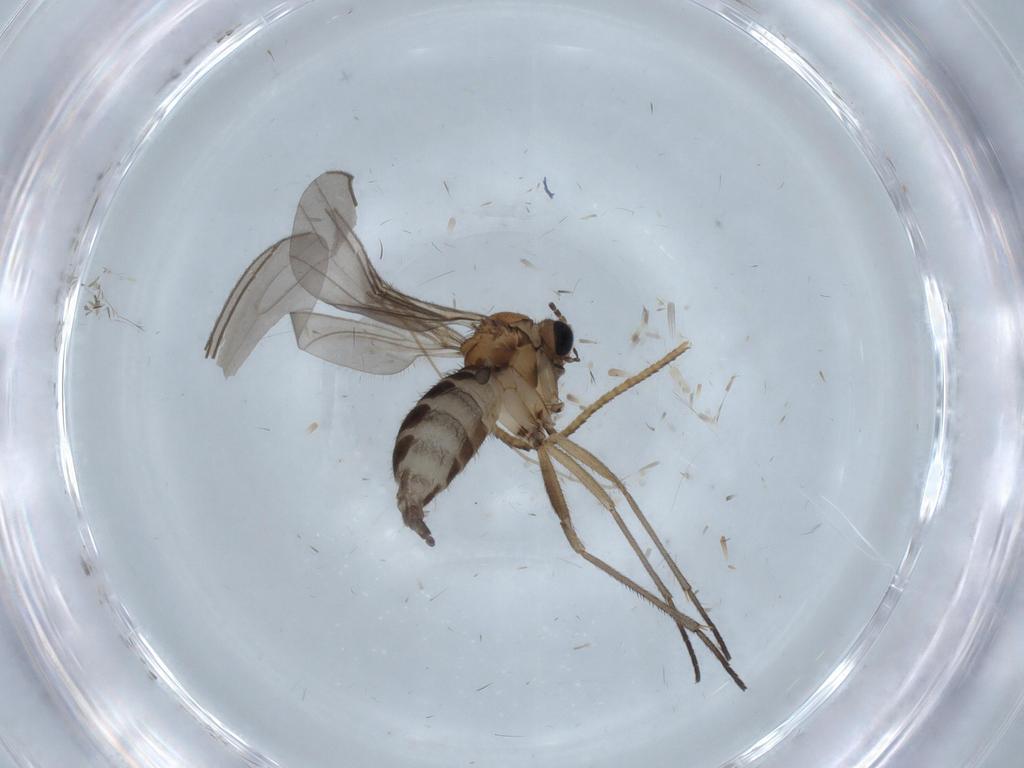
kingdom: Animalia
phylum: Arthropoda
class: Insecta
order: Diptera
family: Sciaridae
